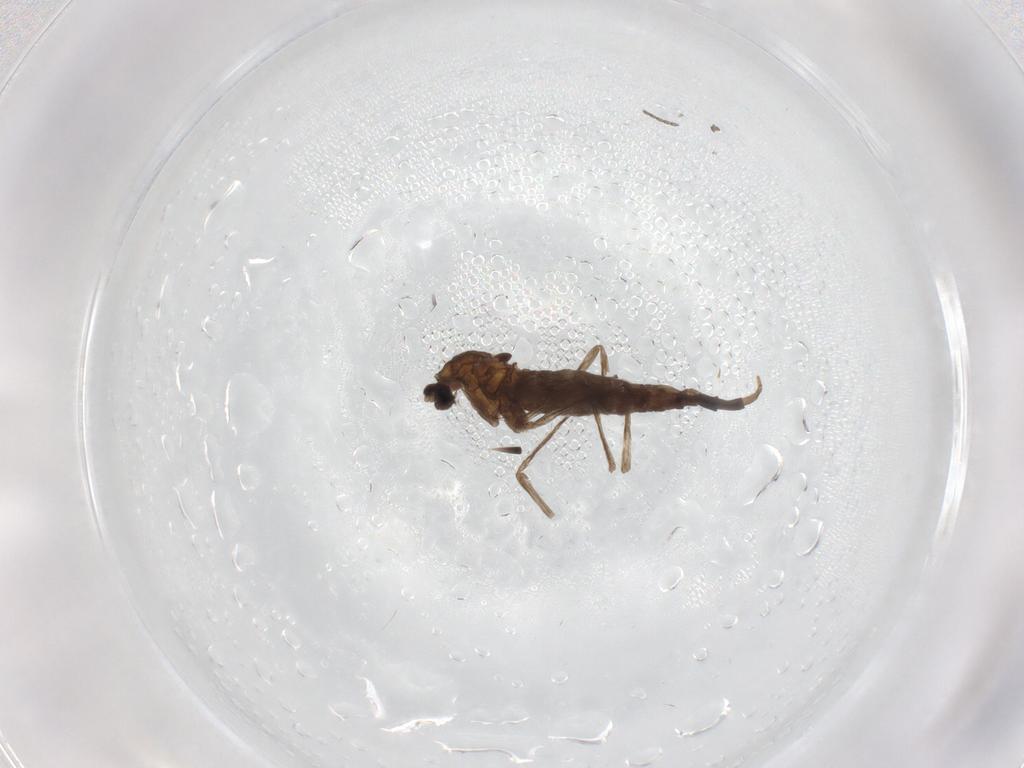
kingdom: Animalia
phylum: Arthropoda
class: Insecta
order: Diptera
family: Cecidomyiidae
